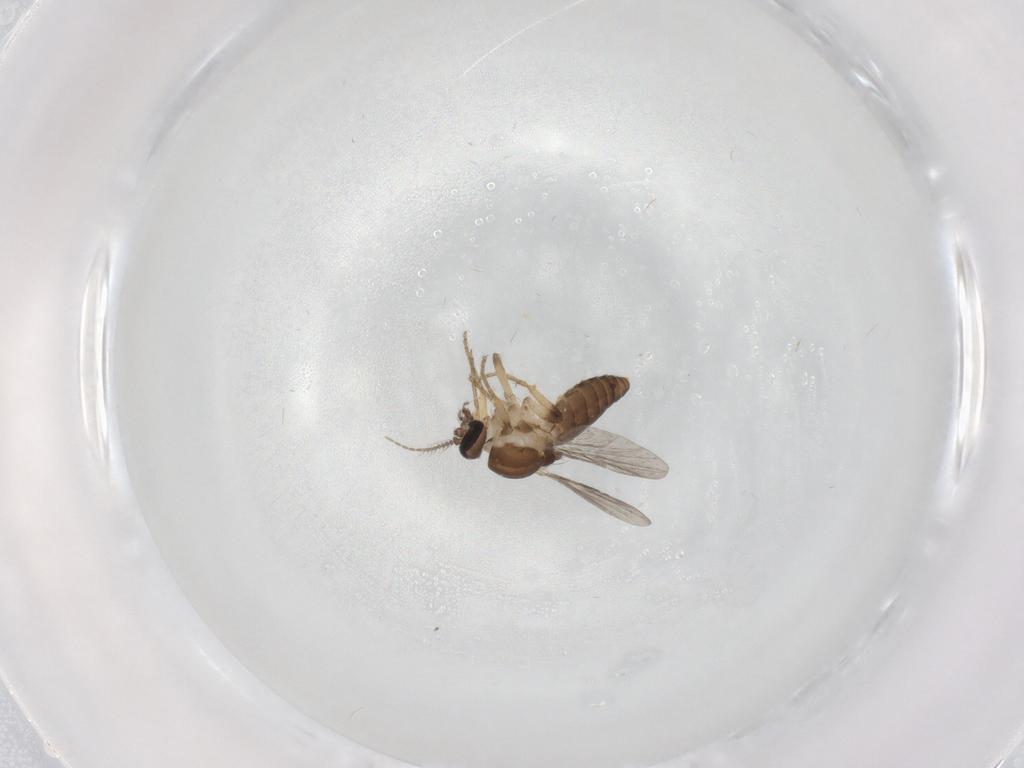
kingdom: Animalia
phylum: Arthropoda
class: Insecta
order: Diptera
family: Ceratopogonidae
